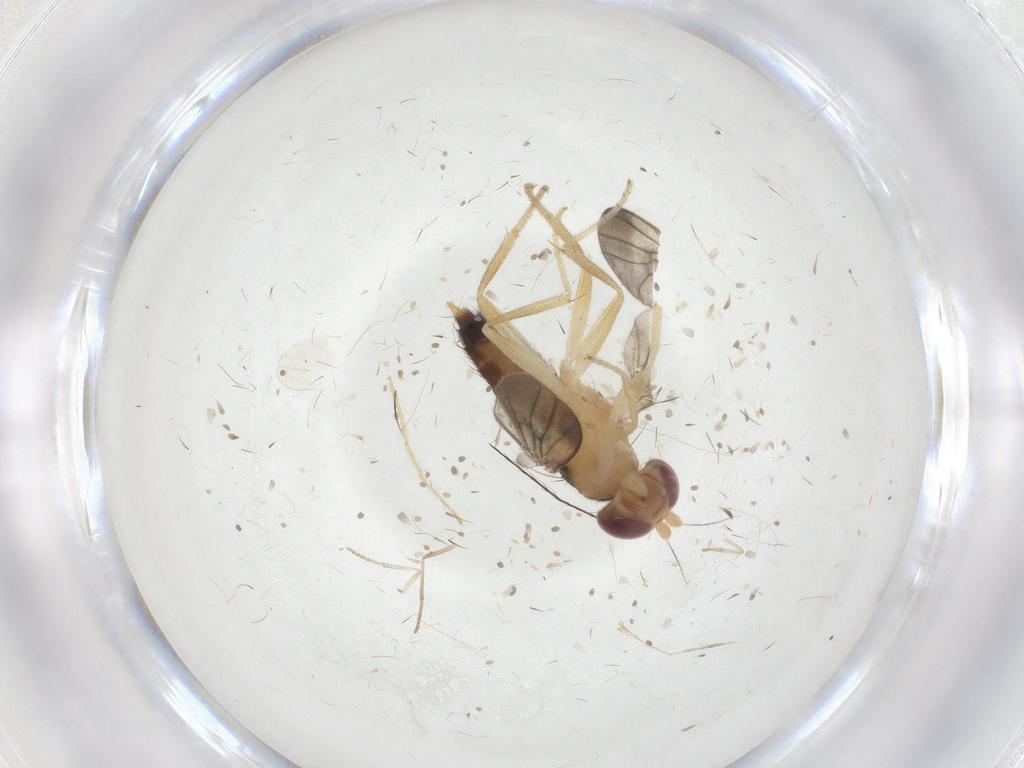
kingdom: Animalia
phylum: Arthropoda
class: Insecta
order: Diptera
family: Clusiidae
